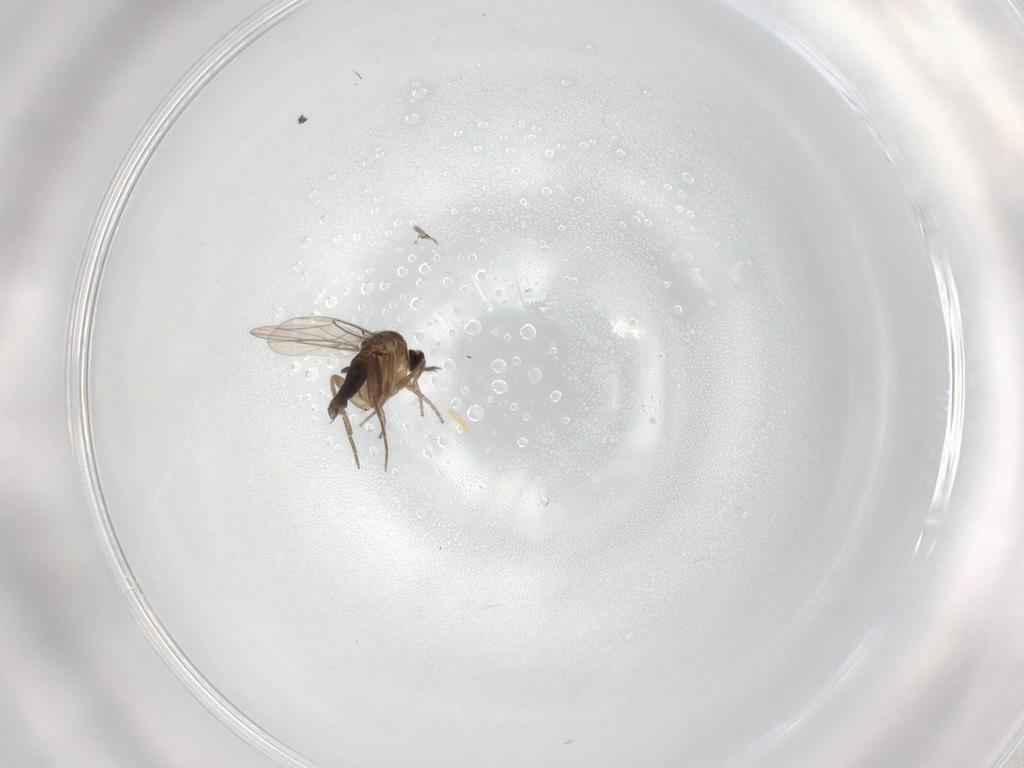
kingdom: Animalia
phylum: Arthropoda
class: Insecta
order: Diptera
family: Phoridae
